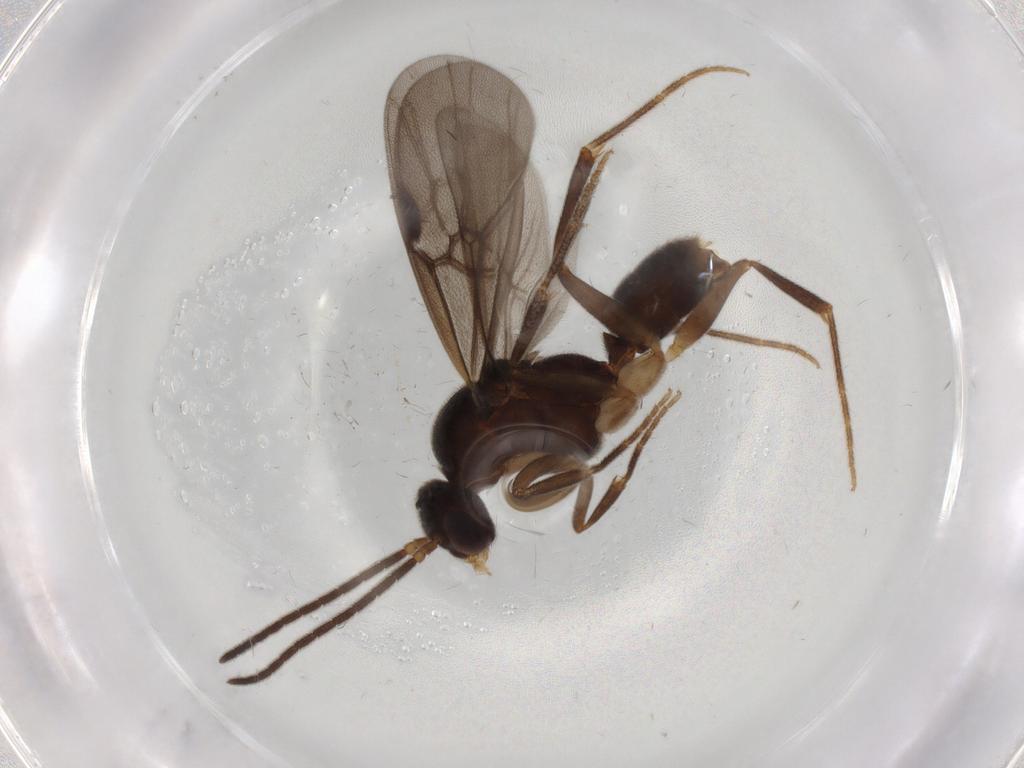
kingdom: Animalia
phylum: Arthropoda
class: Insecta
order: Hymenoptera
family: Formicidae
